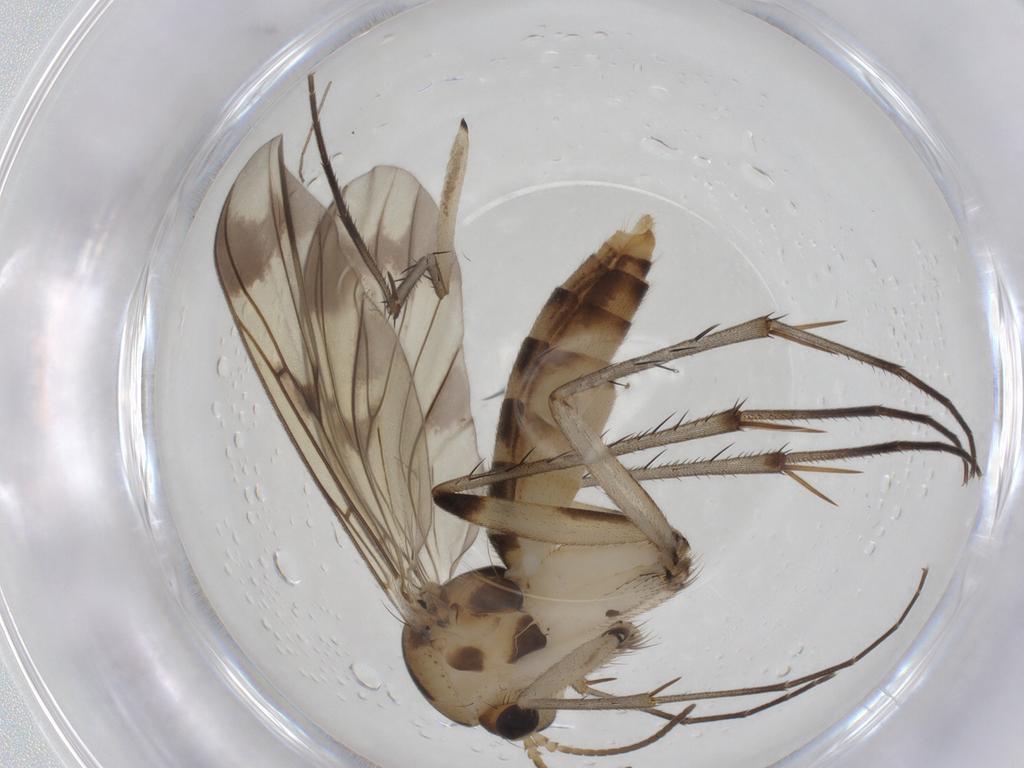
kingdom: Animalia
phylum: Arthropoda
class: Insecta
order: Diptera
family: Mycetophilidae
